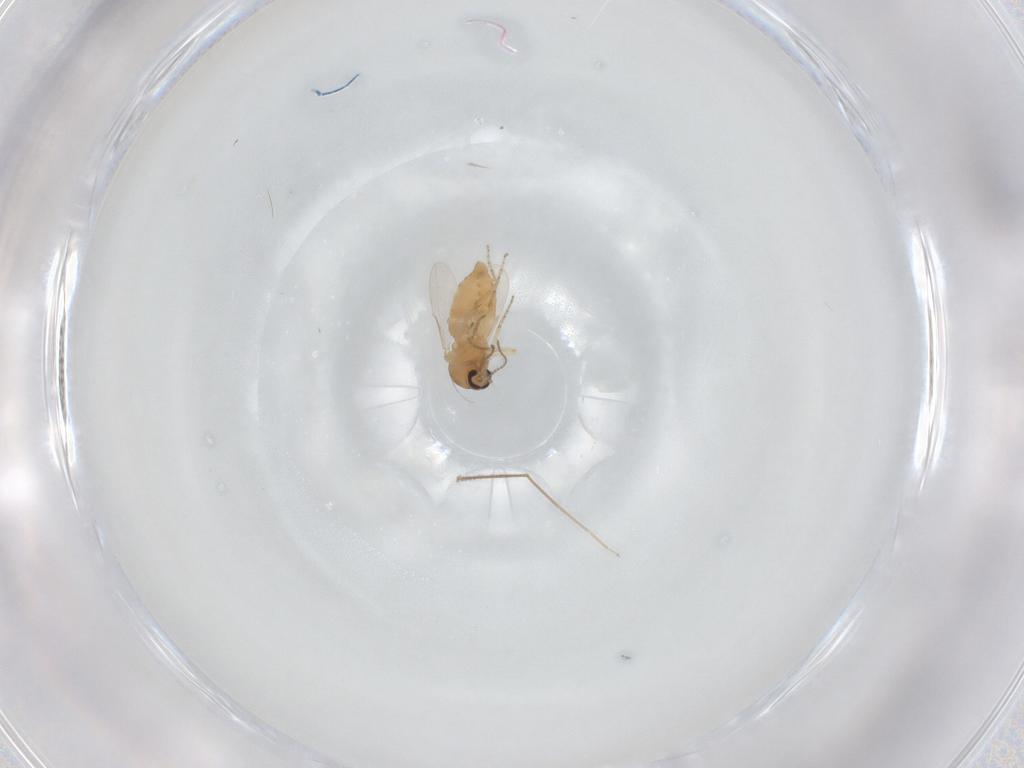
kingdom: Animalia
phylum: Arthropoda
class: Insecta
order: Diptera
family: Ceratopogonidae
